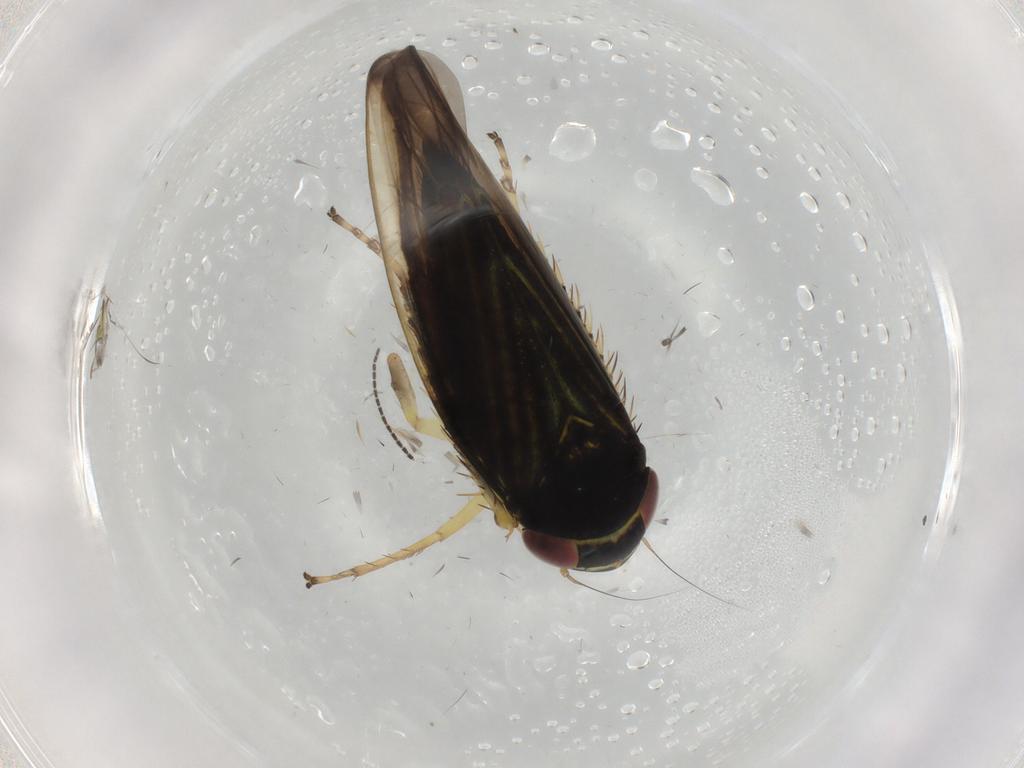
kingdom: Animalia
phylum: Arthropoda
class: Insecta
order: Hemiptera
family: Cicadellidae
